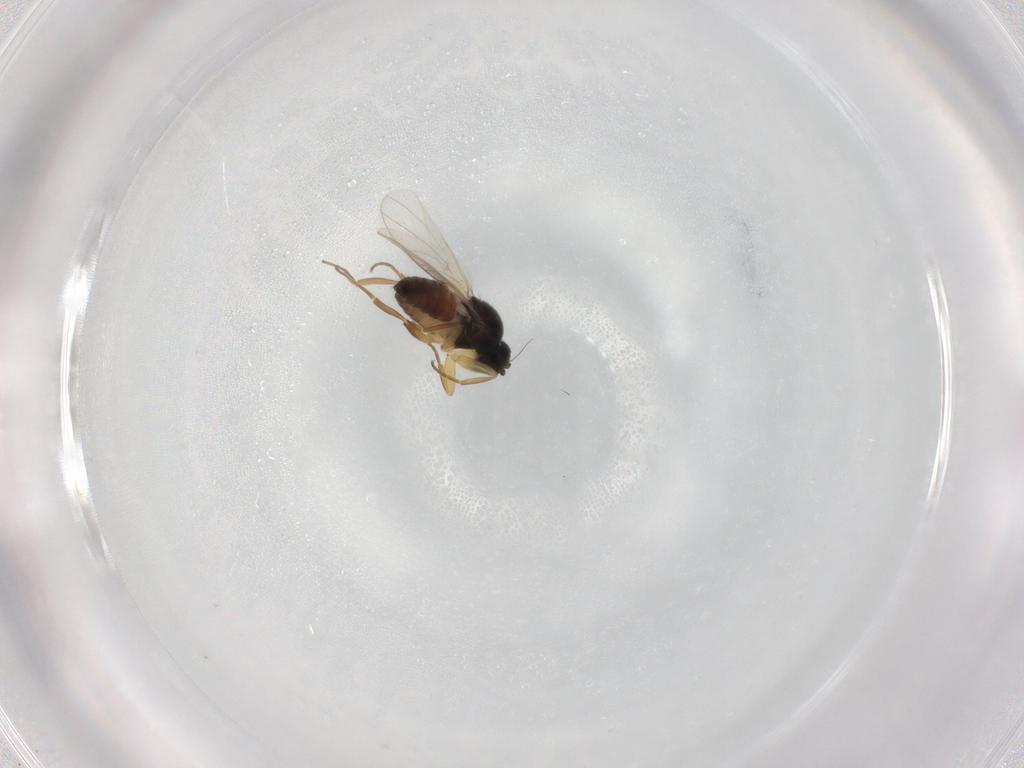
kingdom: Animalia
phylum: Arthropoda
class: Insecta
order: Diptera
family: Hybotidae
